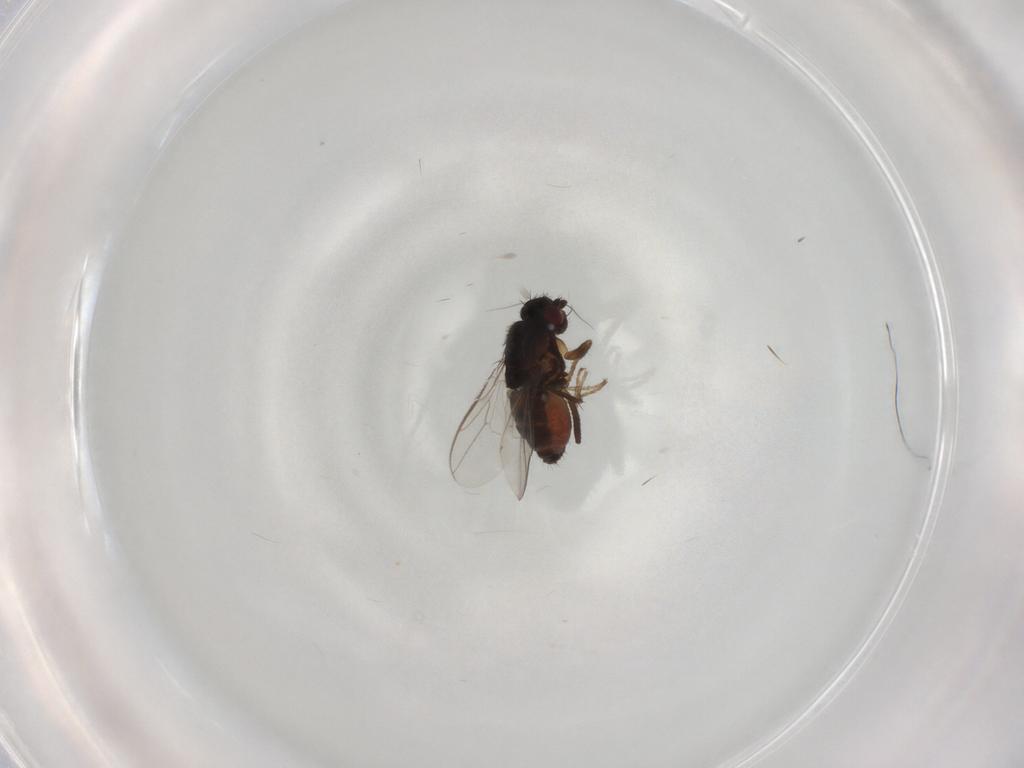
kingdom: Animalia
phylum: Arthropoda
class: Insecta
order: Diptera
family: Sphaeroceridae
